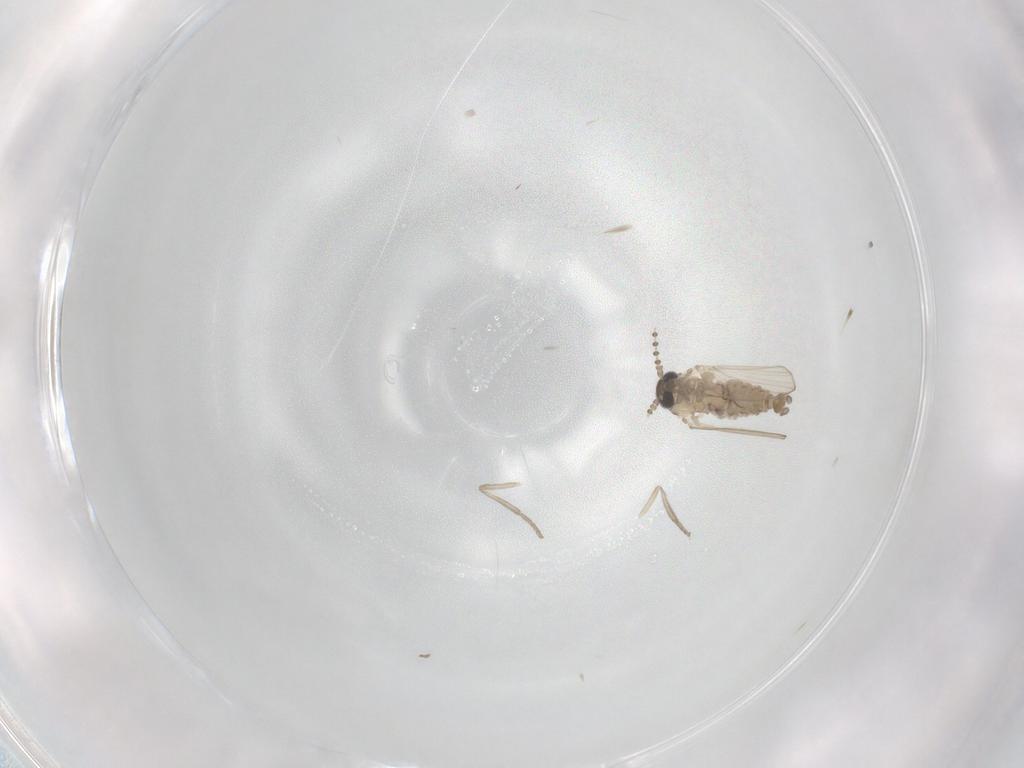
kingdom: Animalia
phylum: Arthropoda
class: Insecta
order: Diptera
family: Psychodidae
